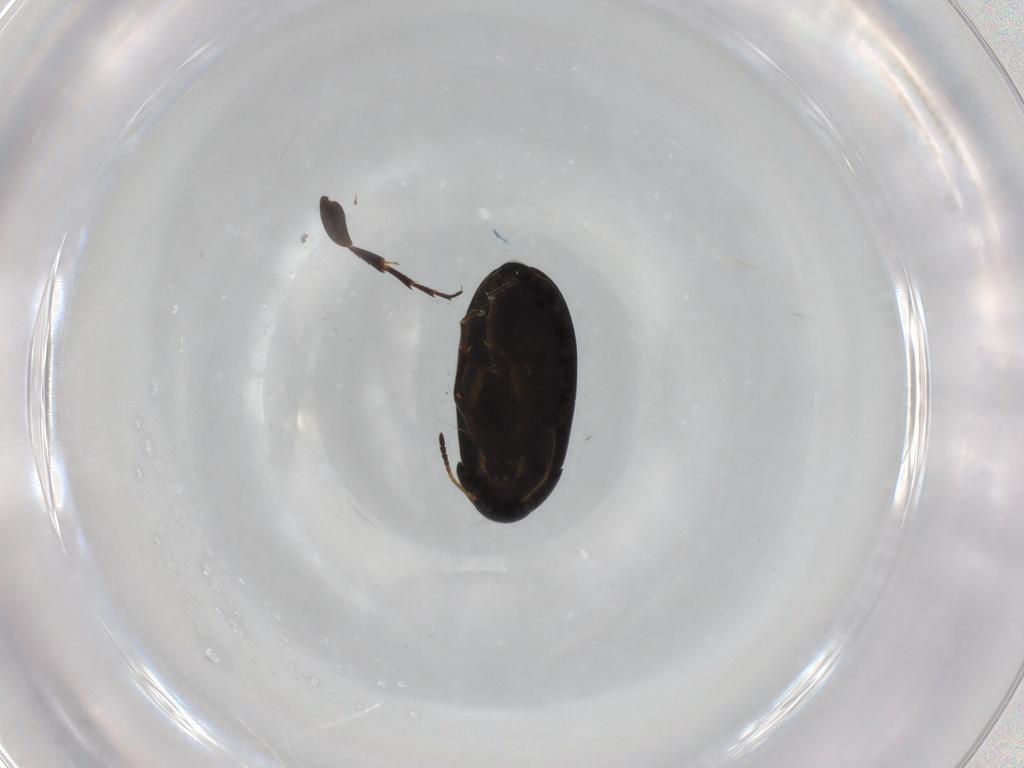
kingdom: Animalia
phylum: Arthropoda
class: Insecta
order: Coleoptera
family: Scraptiidae
